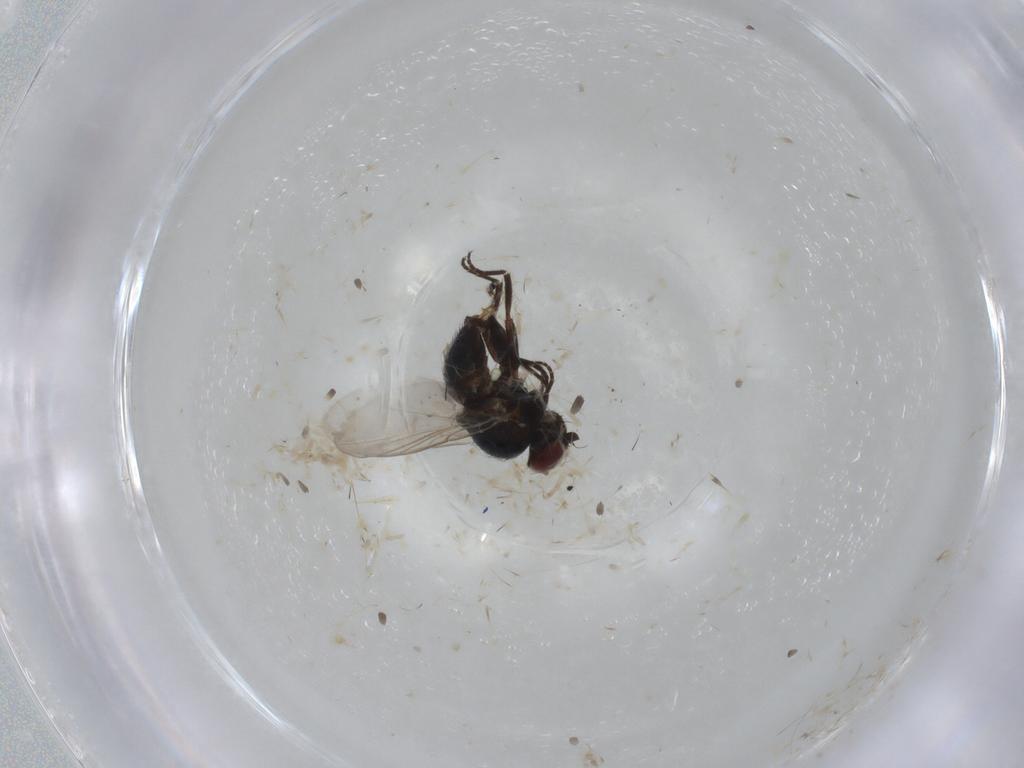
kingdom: Animalia
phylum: Arthropoda
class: Insecta
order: Diptera
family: Dolichopodidae
